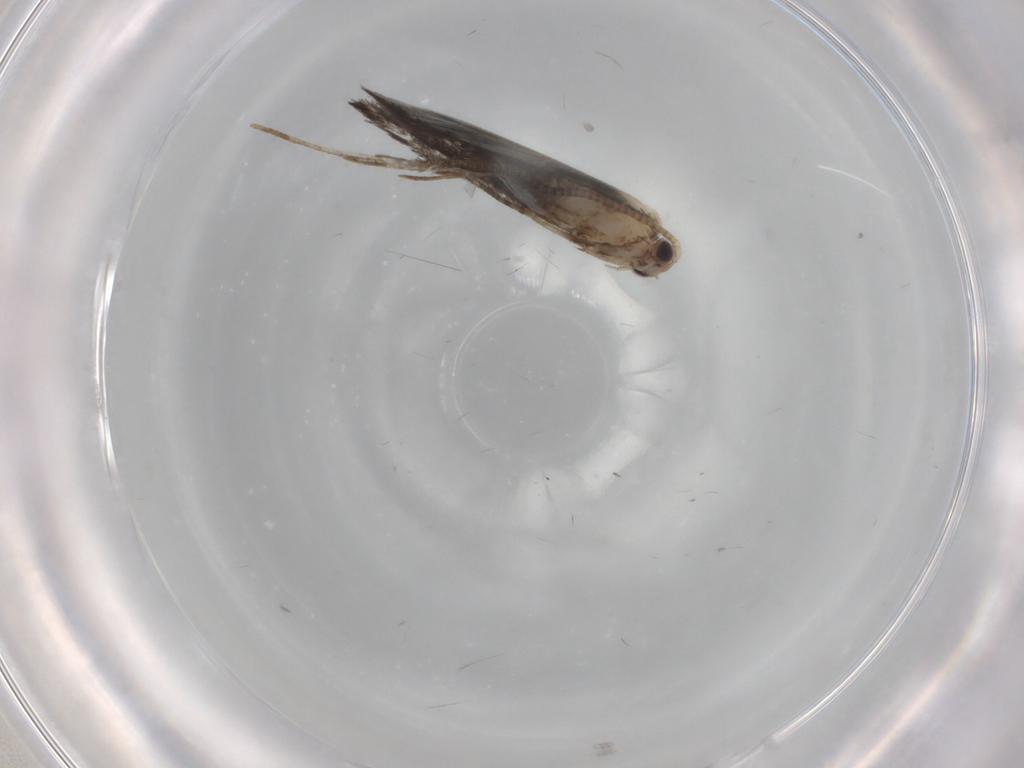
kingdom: Animalia
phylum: Arthropoda
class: Insecta
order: Lepidoptera
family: Tineidae
